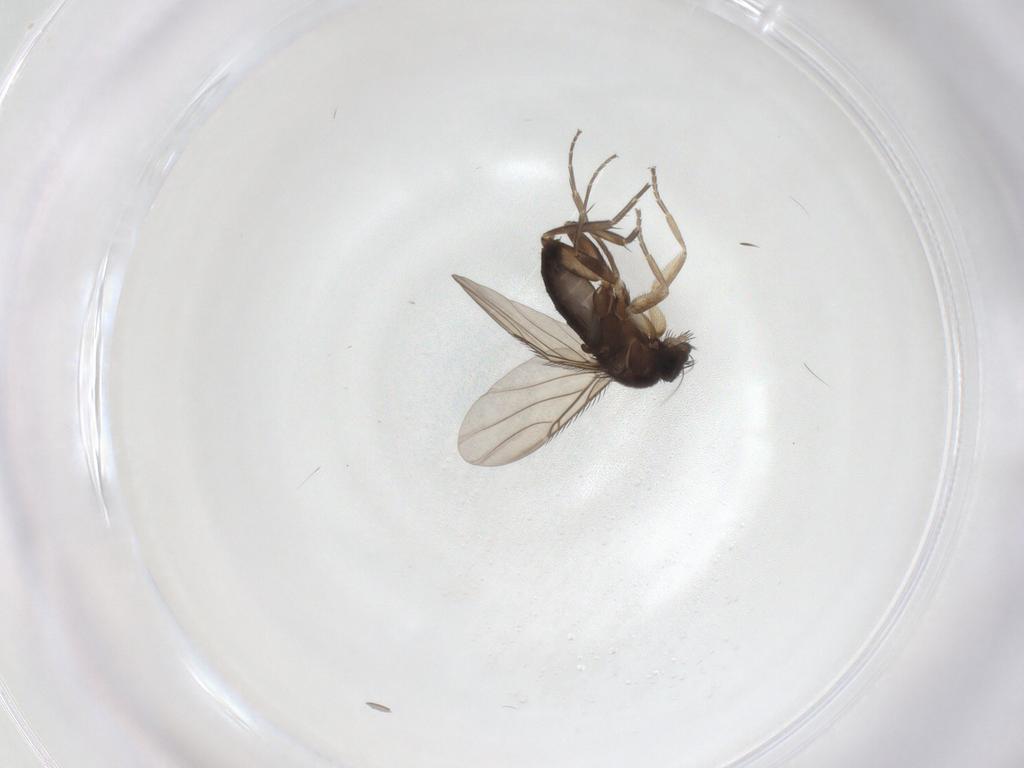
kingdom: Animalia
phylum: Arthropoda
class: Insecta
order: Diptera
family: Phoridae
